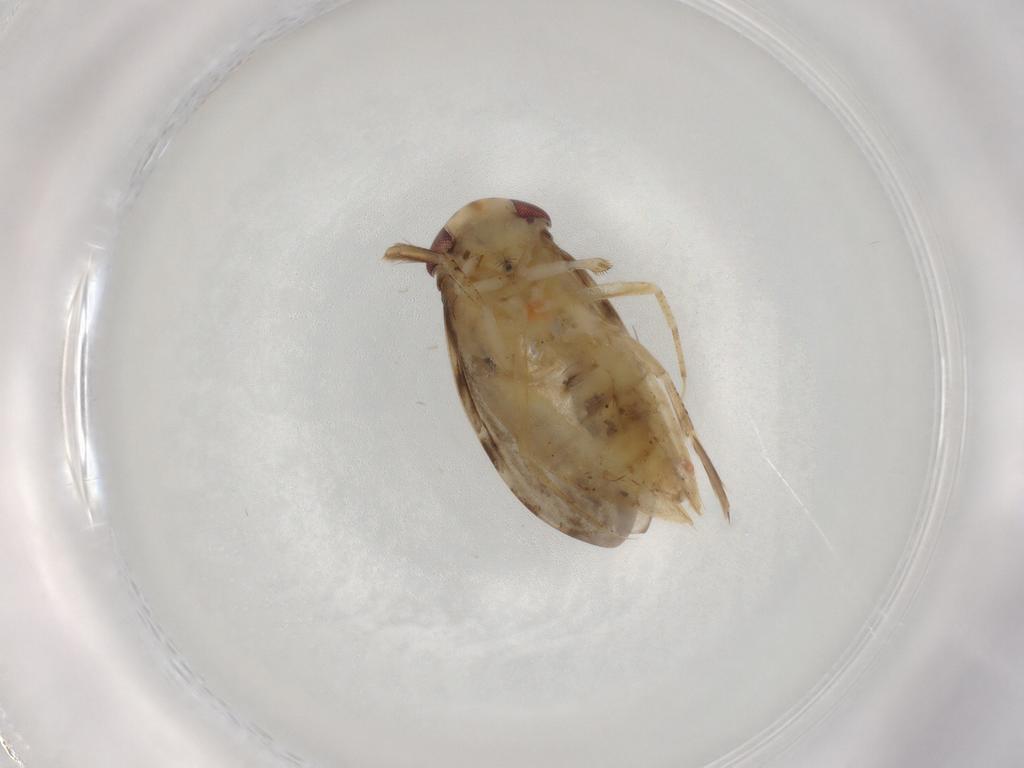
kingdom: Animalia
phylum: Arthropoda
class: Insecta
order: Hemiptera
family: Corixidae
